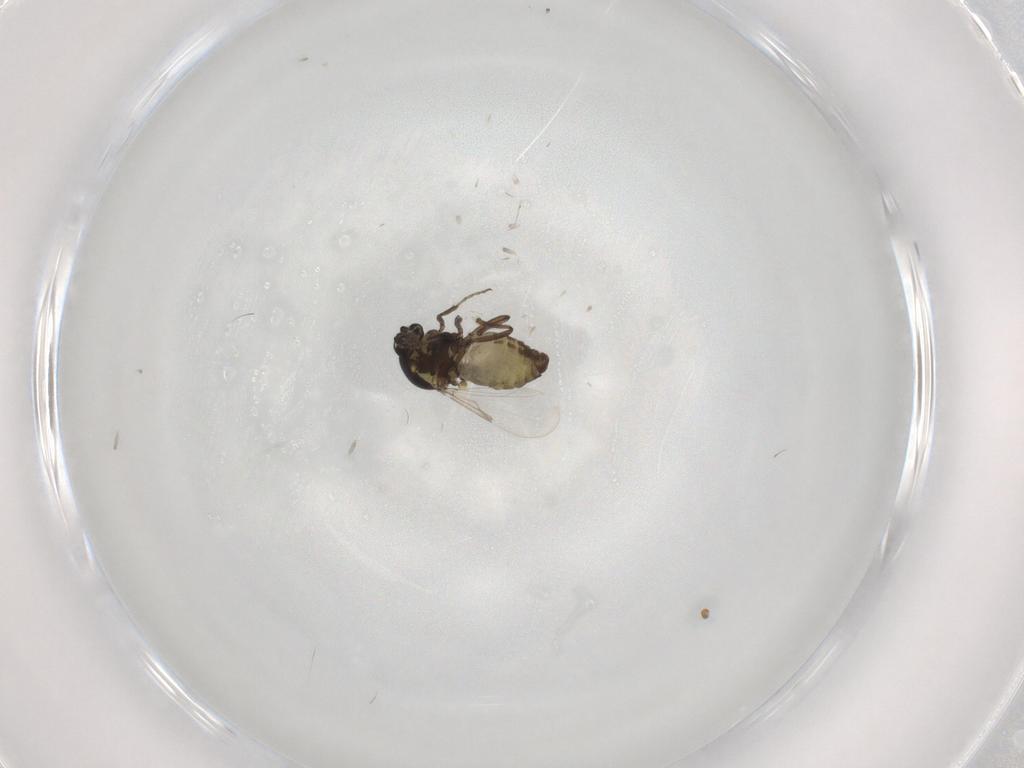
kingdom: Animalia
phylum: Arthropoda
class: Insecta
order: Diptera
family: Ceratopogonidae
